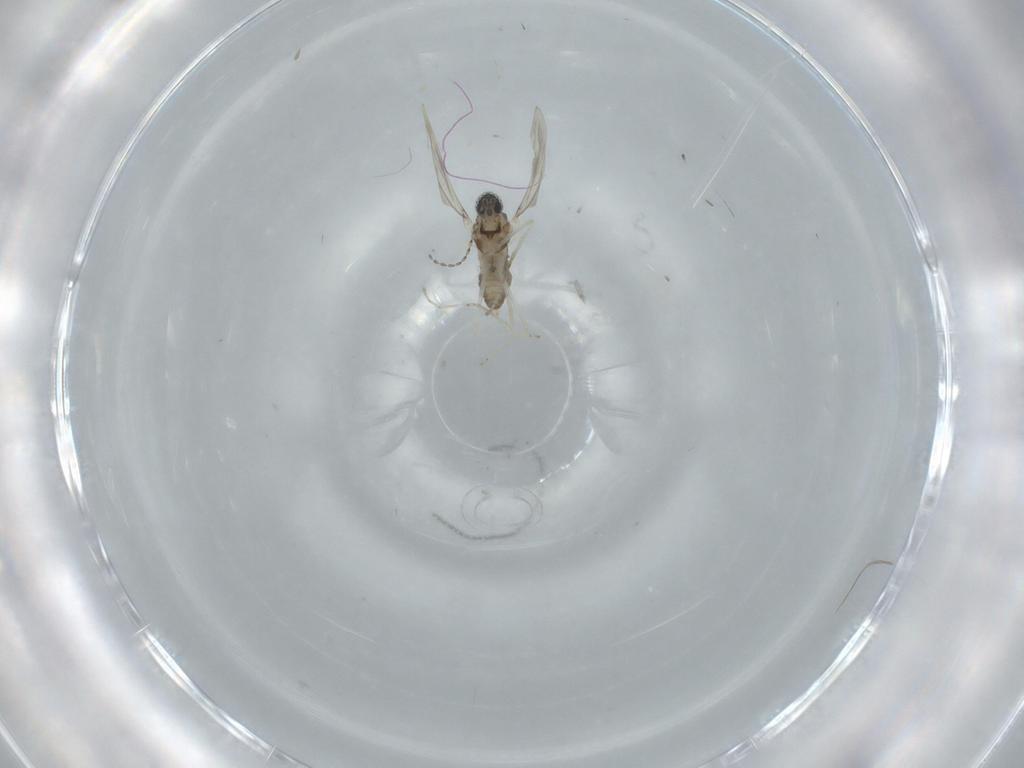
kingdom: Animalia
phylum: Arthropoda
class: Insecta
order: Diptera
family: Cecidomyiidae
